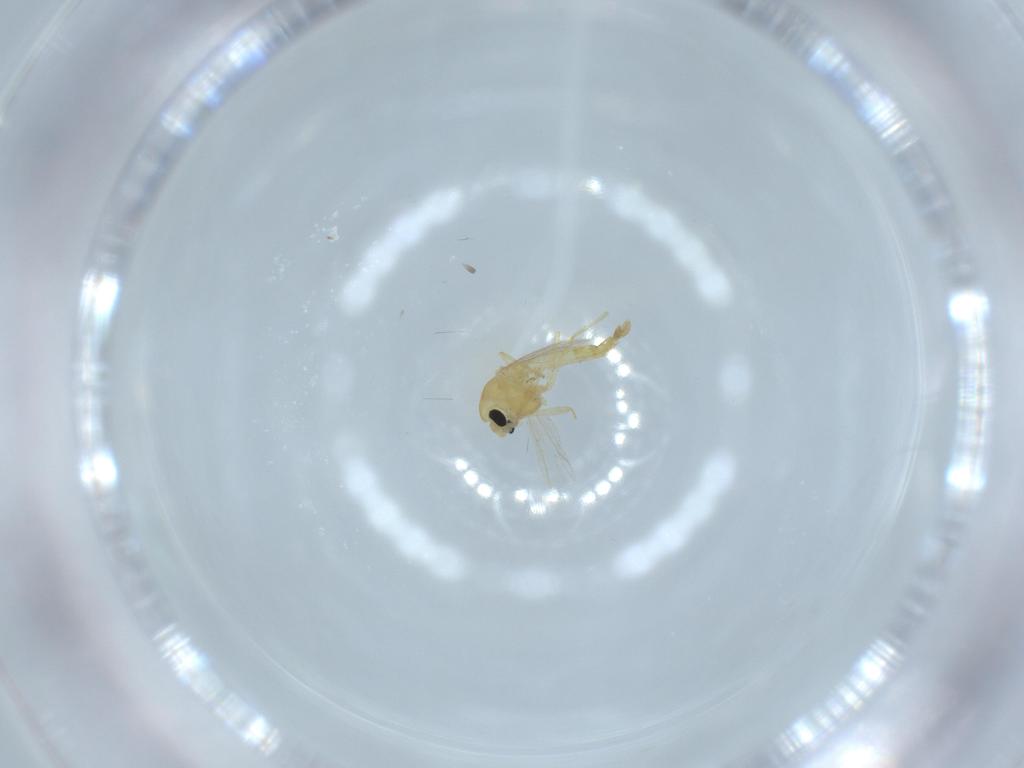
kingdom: Animalia
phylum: Arthropoda
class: Insecta
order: Diptera
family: Chironomidae
